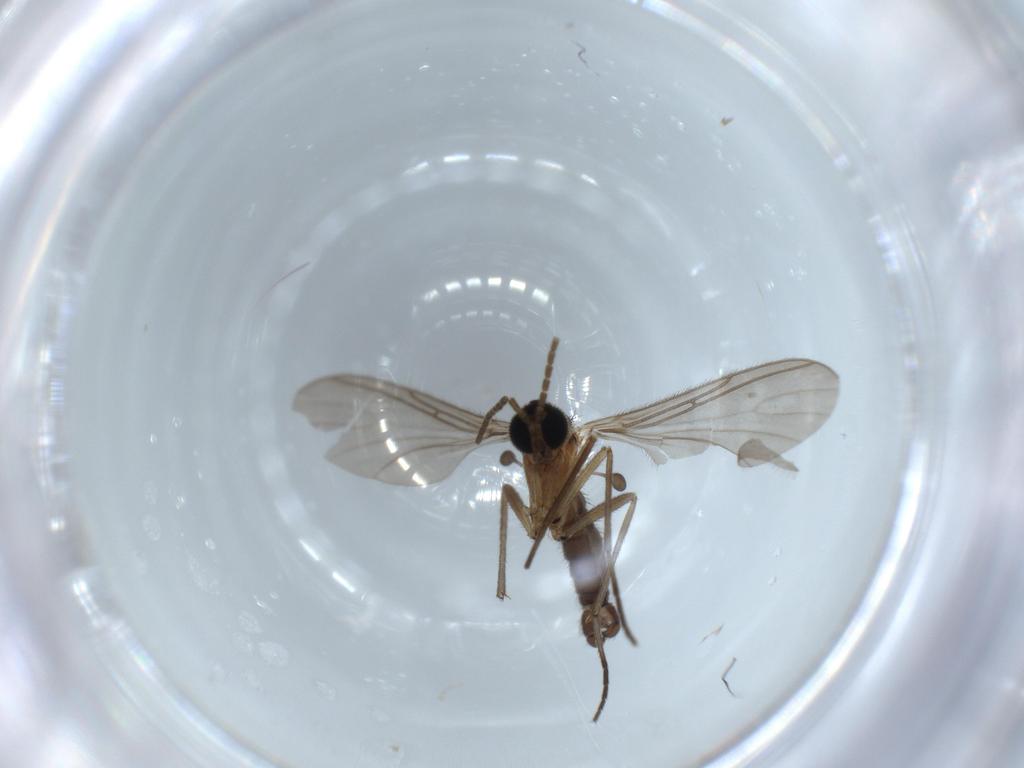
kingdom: Animalia
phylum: Arthropoda
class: Insecta
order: Diptera
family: Sciaridae
